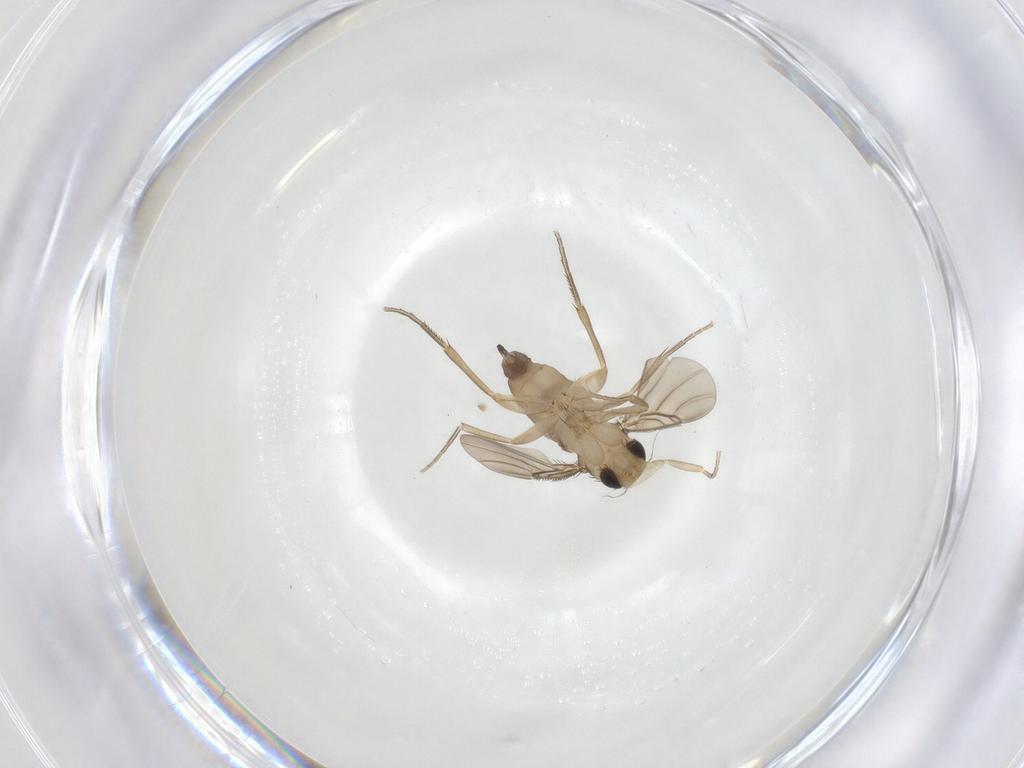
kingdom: Animalia
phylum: Arthropoda
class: Insecta
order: Diptera
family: Phoridae
